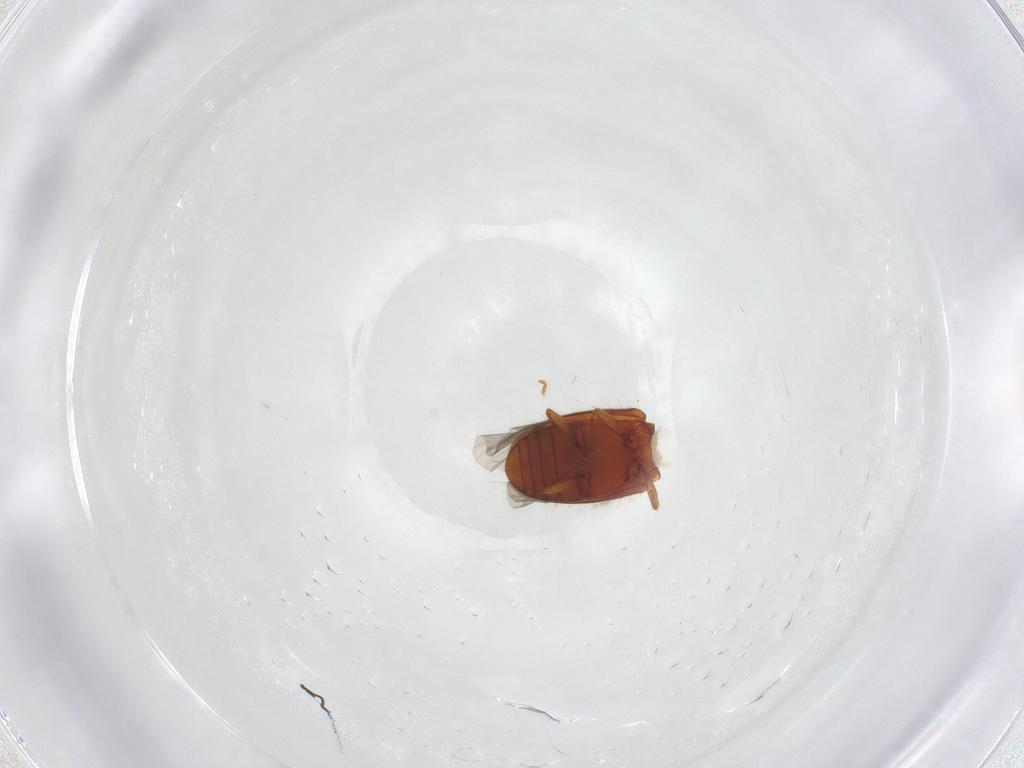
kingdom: Animalia
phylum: Arthropoda
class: Insecta
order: Coleoptera
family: Cryptophagidae
